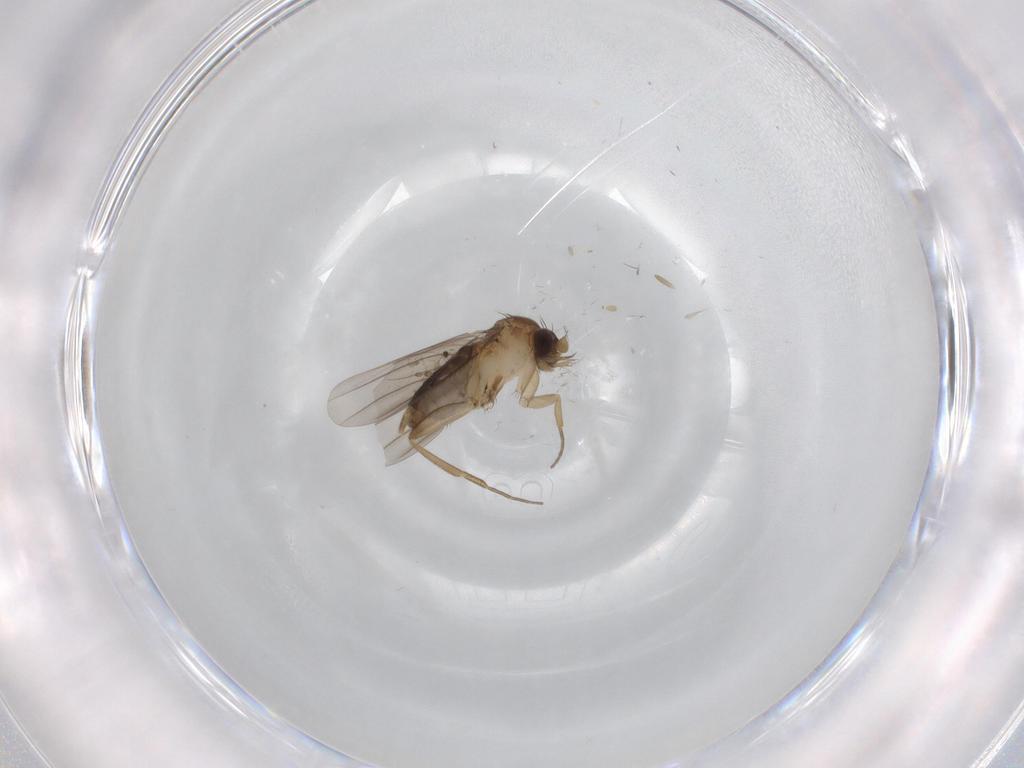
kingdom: Animalia
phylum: Arthropoda
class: Insecta
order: Diptera
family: Phoridae
